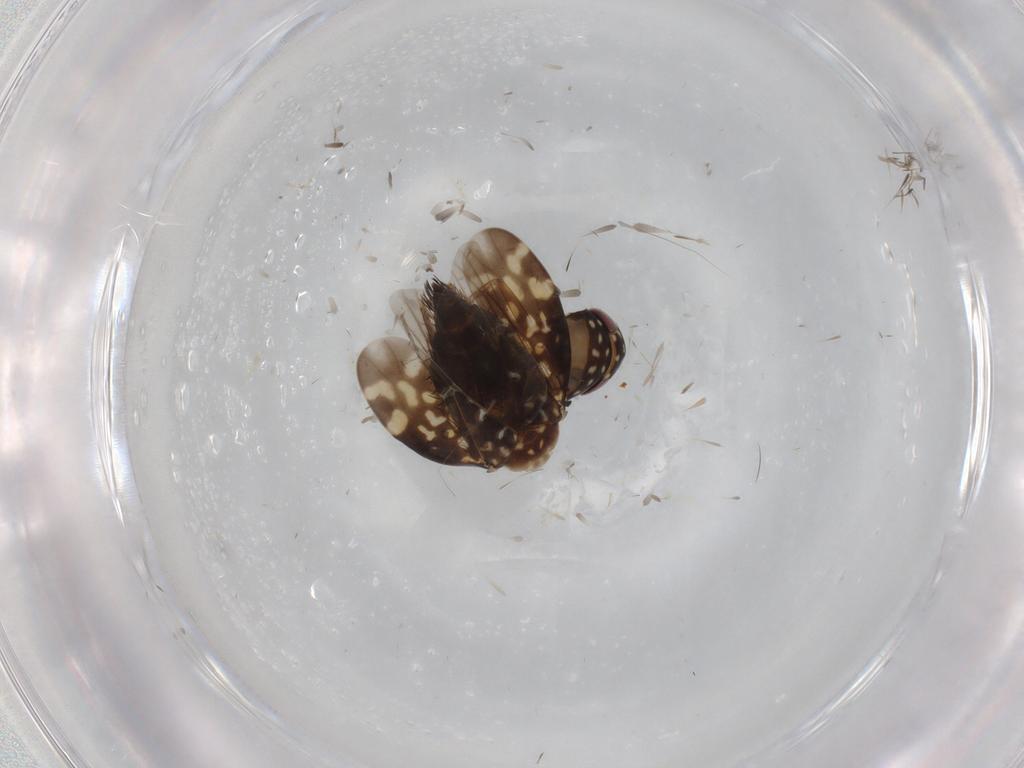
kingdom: Animalia
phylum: Arthropoda
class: Insecta
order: Hemiptera
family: Cicadellidae
